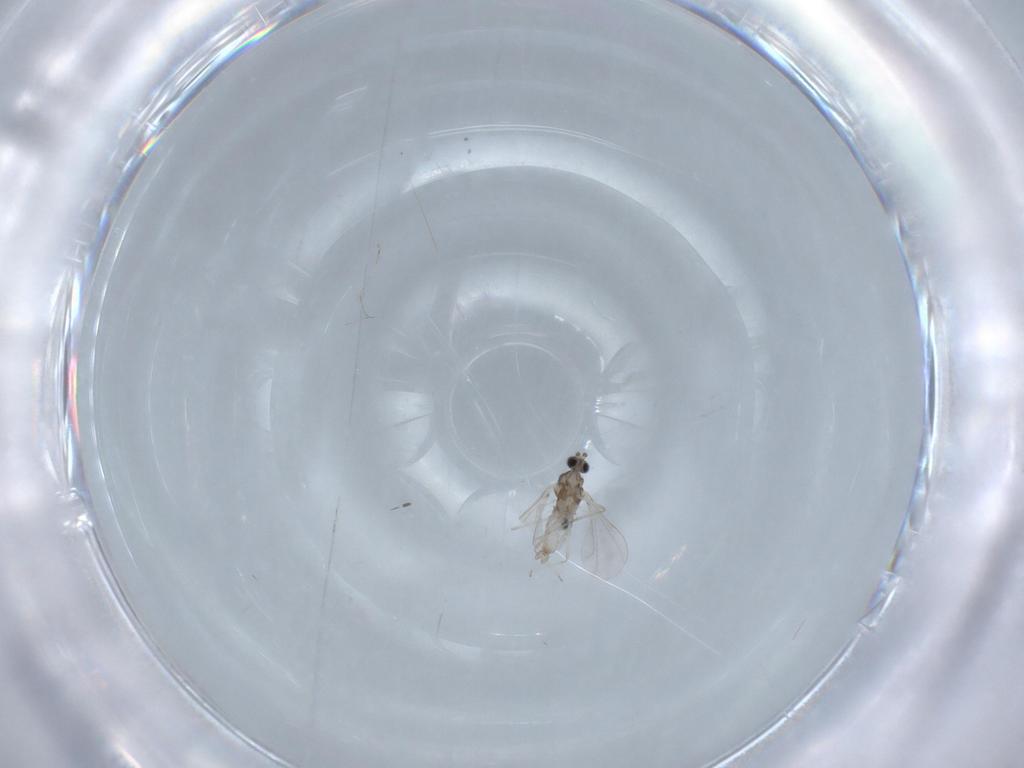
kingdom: Animalia
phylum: Arthropoda
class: Insecta
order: Diptera
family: Cecidomyiidae
